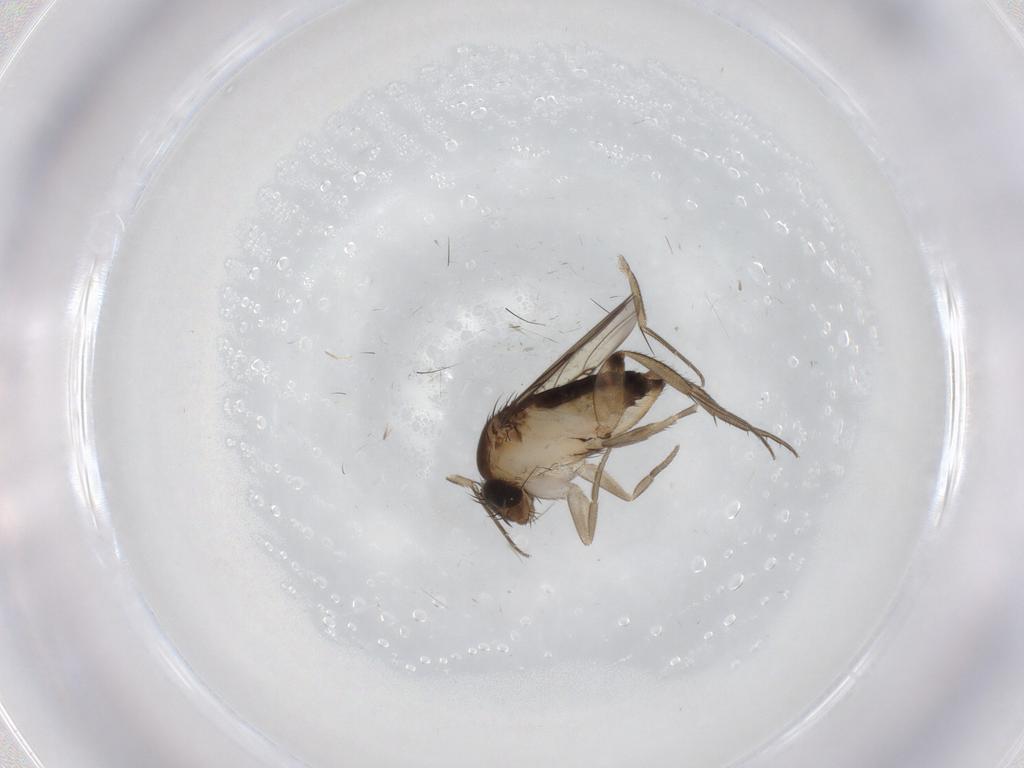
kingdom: Animalia
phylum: Arthropoda
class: Insecta
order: Diptera
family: Phoridae
